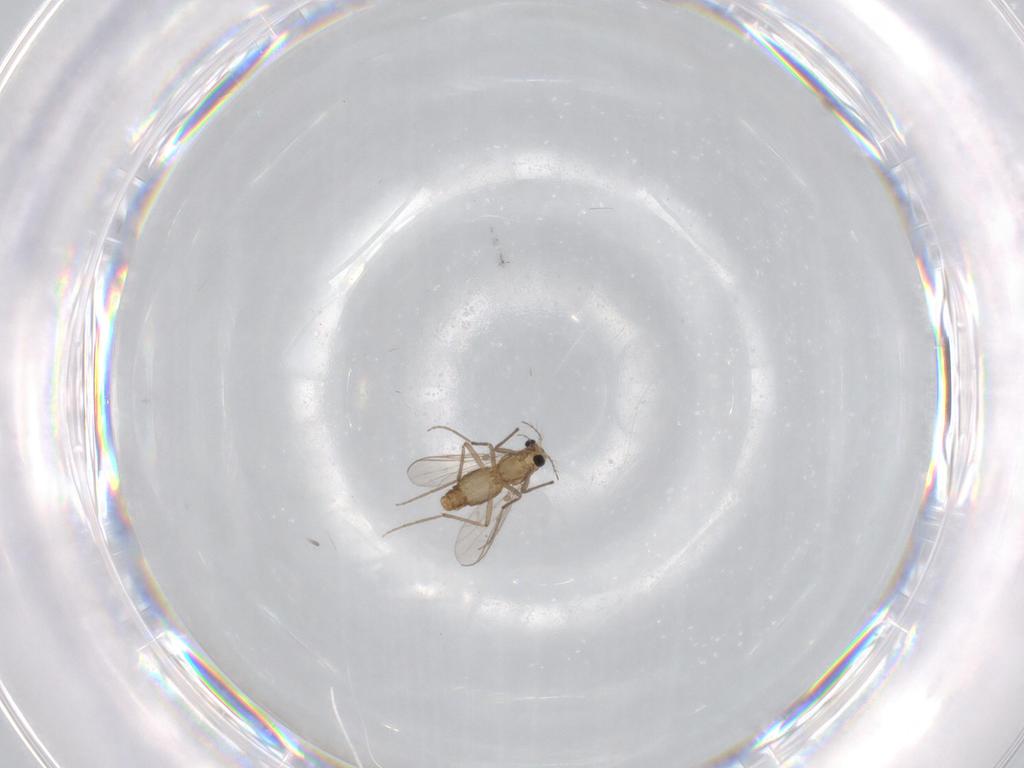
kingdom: Animalia
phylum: Arthropoda
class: Insecta
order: Diptera
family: Chironomidae
